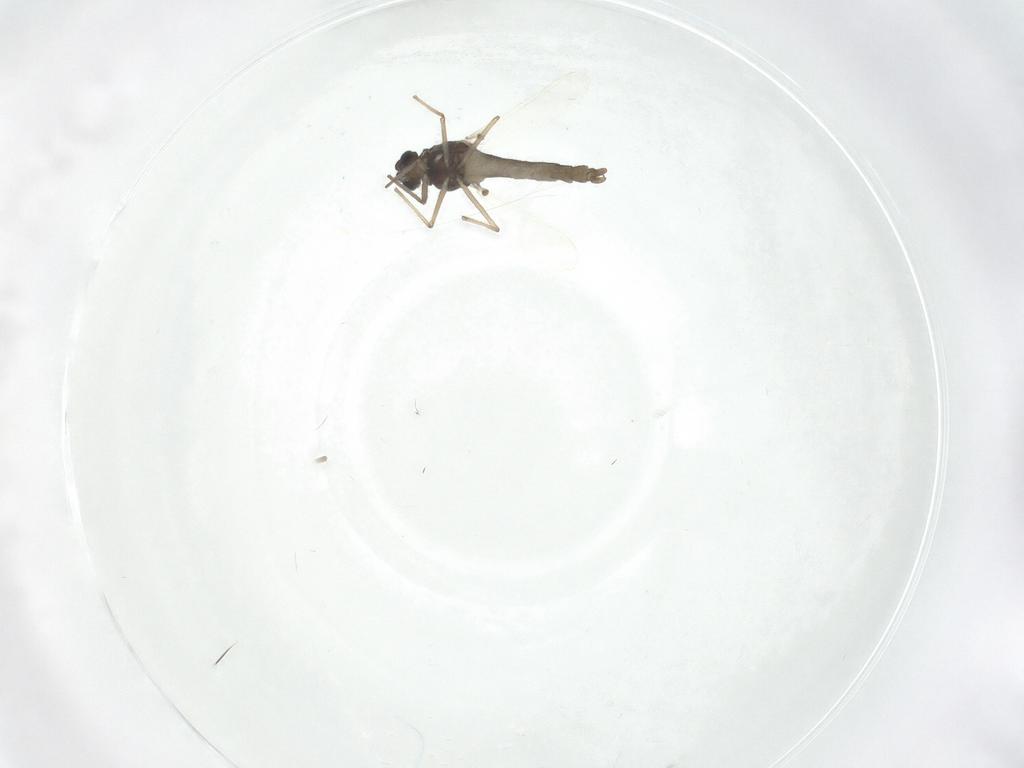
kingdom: Animalia
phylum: Arthropoda
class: Insecta
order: Diptera
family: Chironomidae
